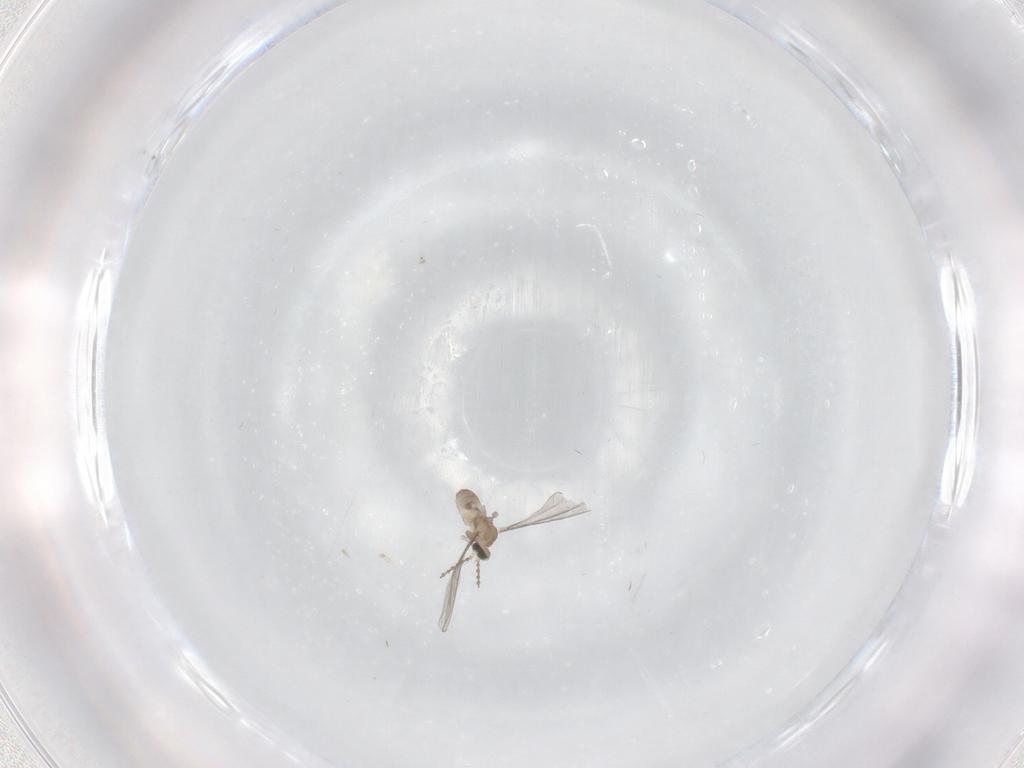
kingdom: Animalia
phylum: Arthropoda
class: Insecta
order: Diptera
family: Cecidomyiidae
